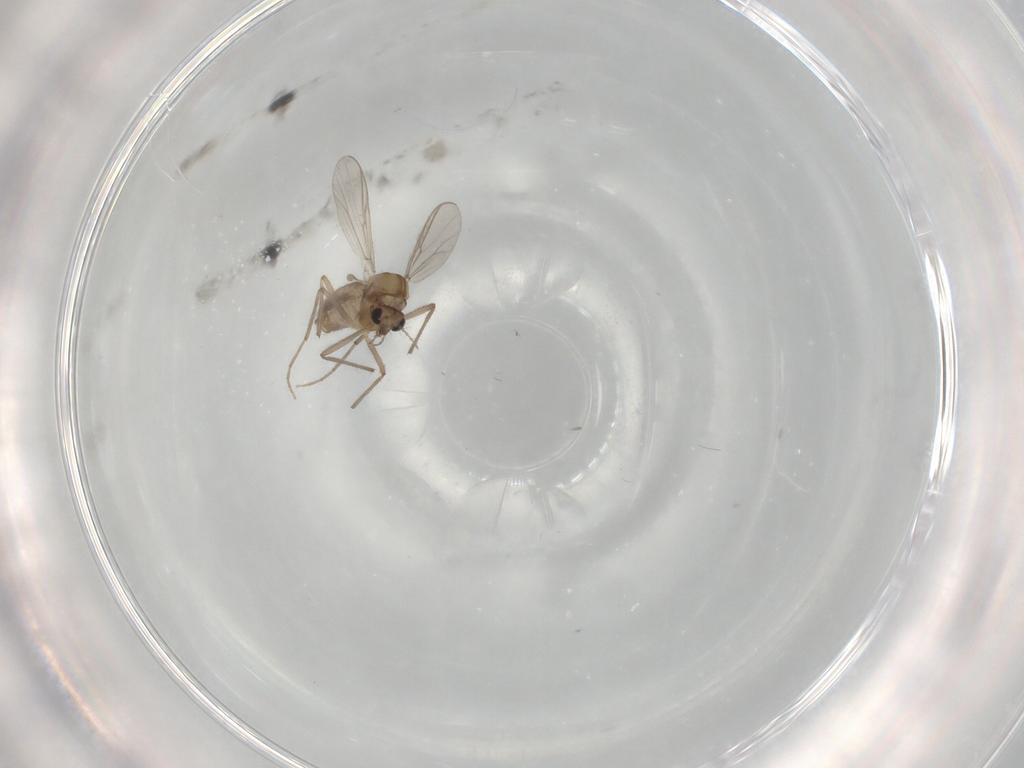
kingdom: Animalia
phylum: Arthropoda
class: Insecta
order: Diptera
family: Chironomidae
